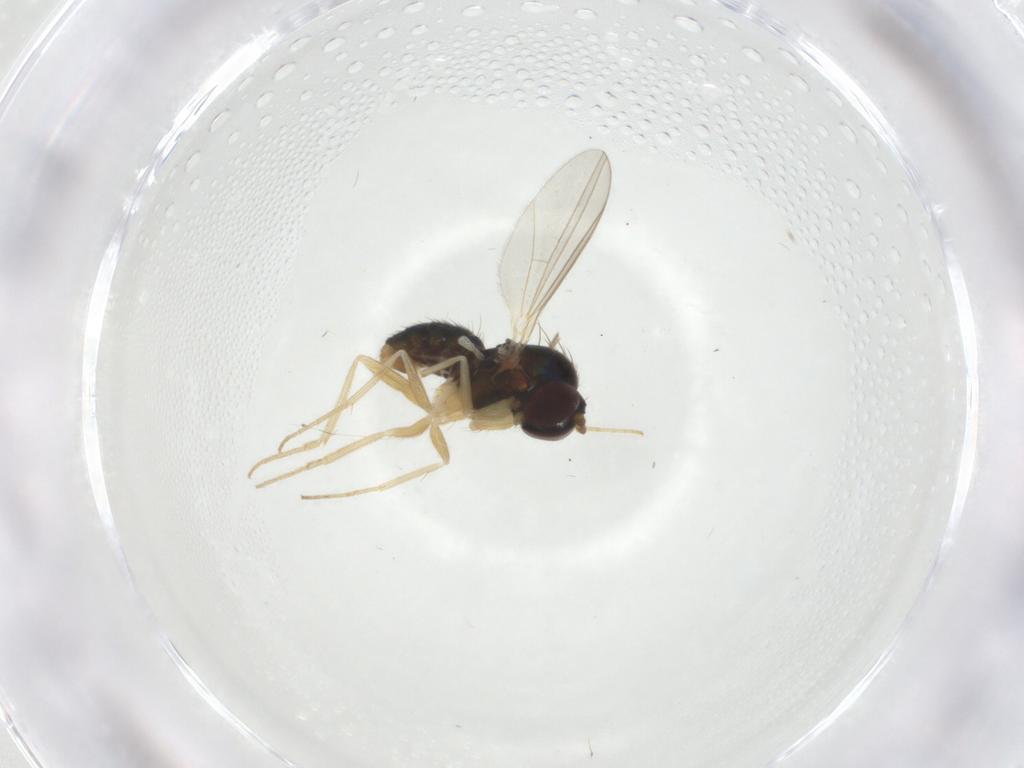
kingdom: Animalia
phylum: Arthropoda
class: Insecta
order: Diptera
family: Dolichopodidae
